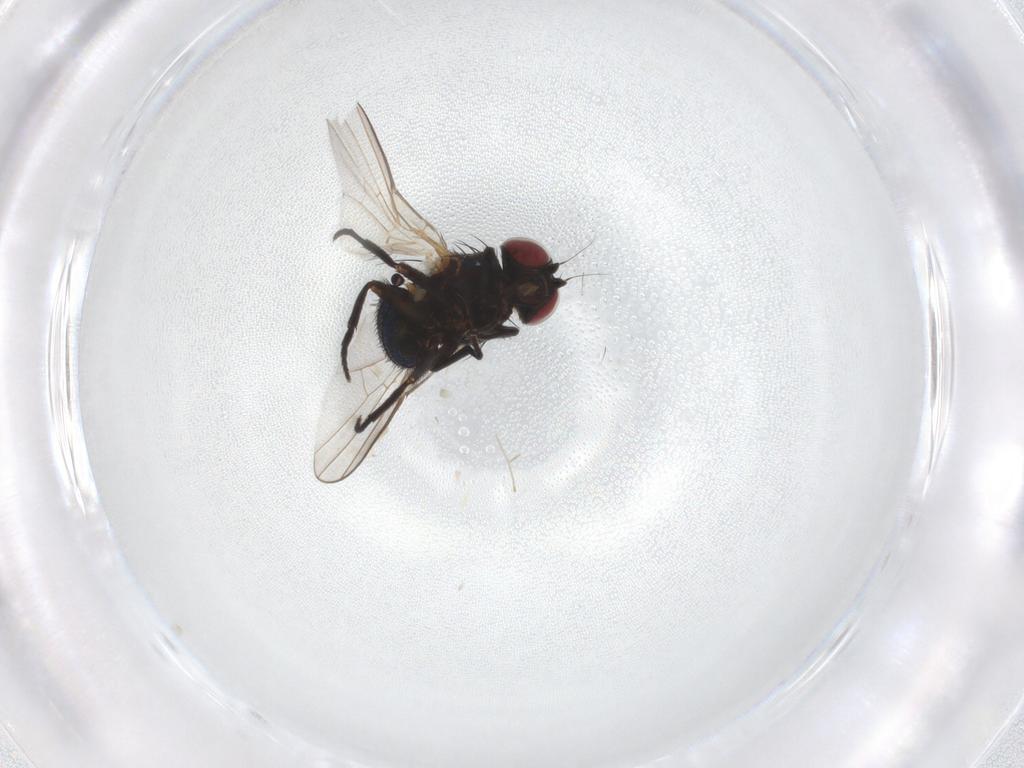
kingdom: Animalia
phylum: Arthropoda
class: Insecta
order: Diptera
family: Agromyzidae
